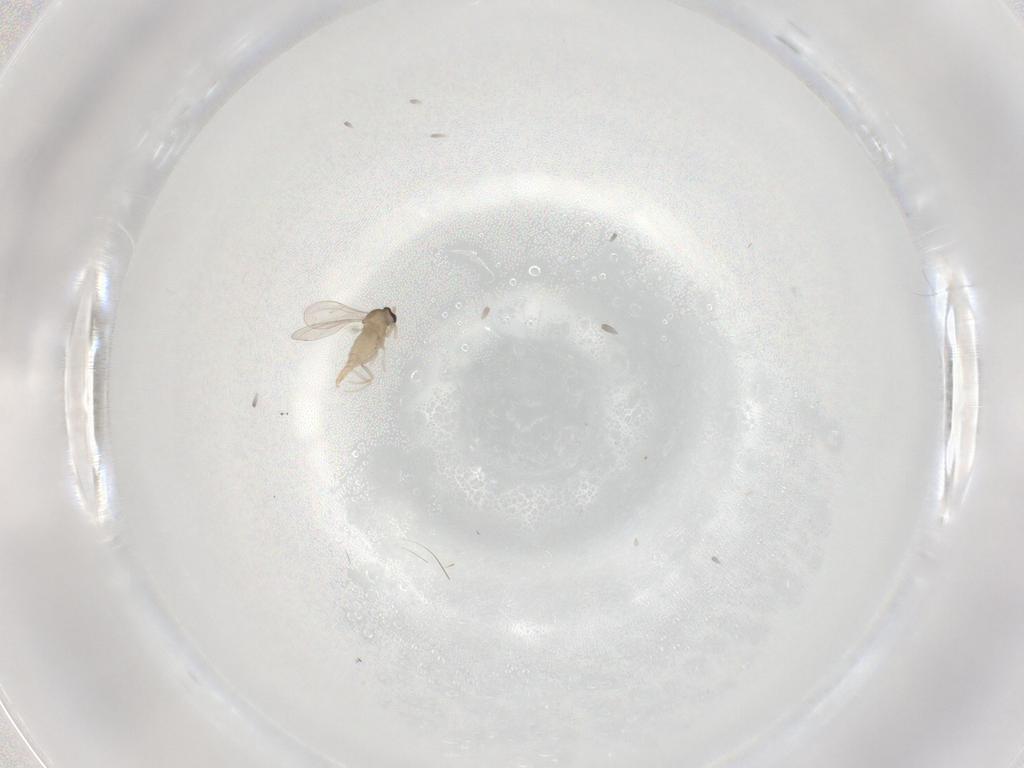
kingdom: Animalia
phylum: Arthropoda
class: Insecta
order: Diptera
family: Cecidomyiidae
